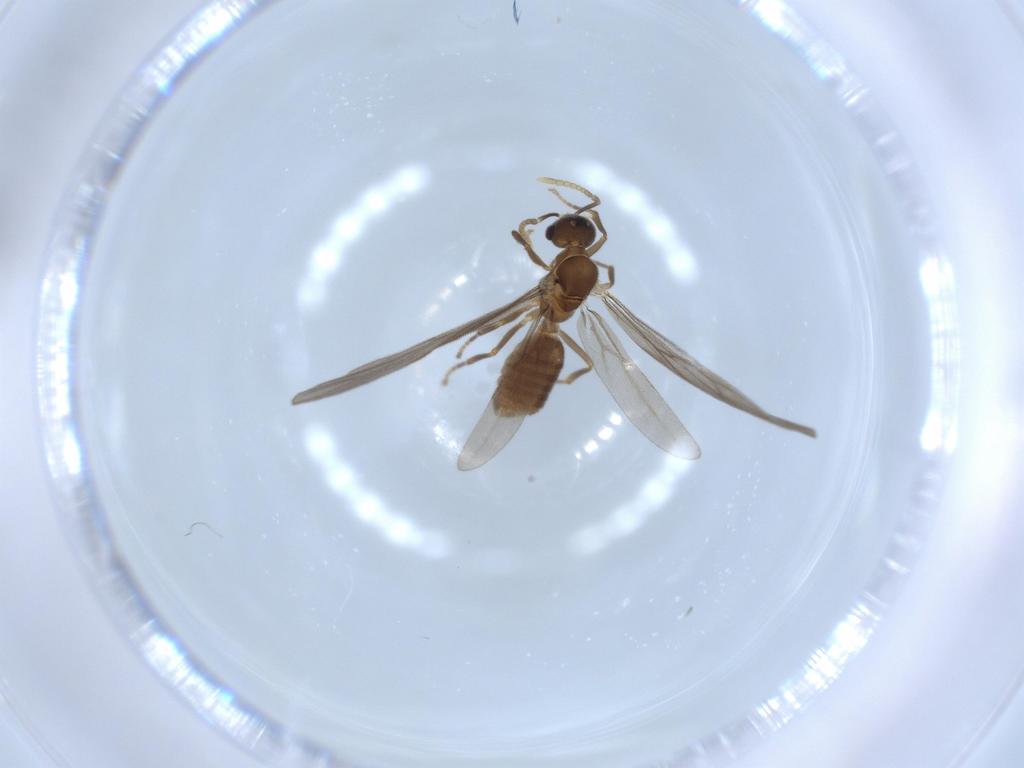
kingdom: Animalia
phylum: Arthropoda
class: Insecta
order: Hymenoptera
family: Formicidae
